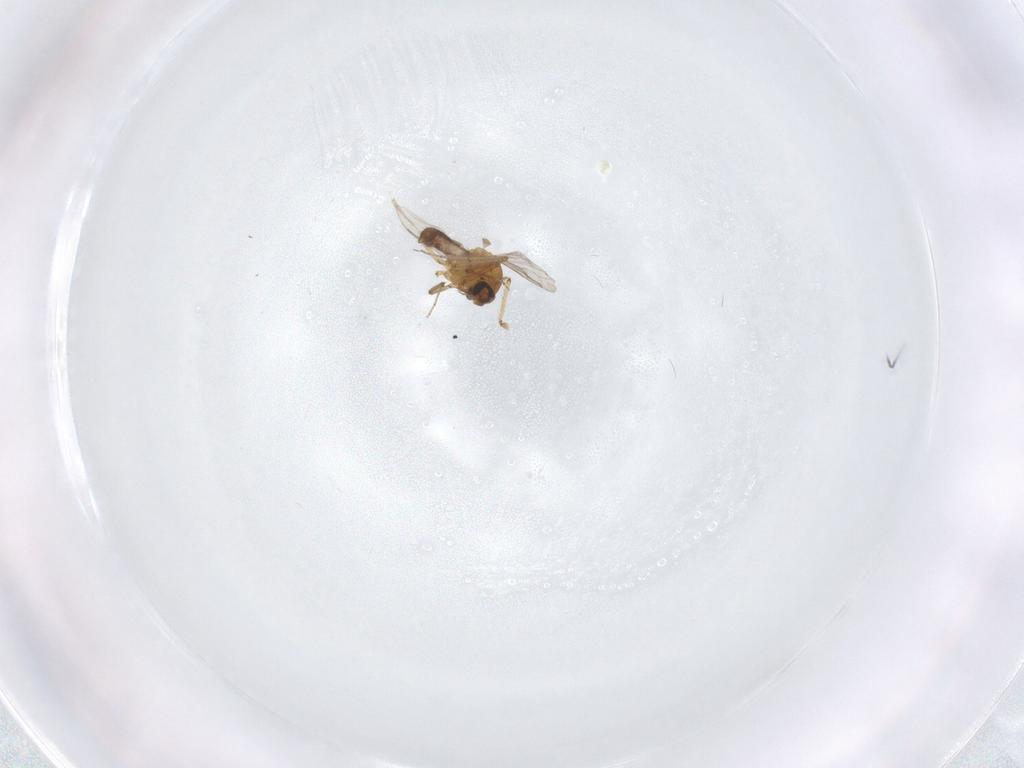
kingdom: Animalia
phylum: Arthropoda
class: Insecta
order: Diptera
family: Ceratopogonidae
